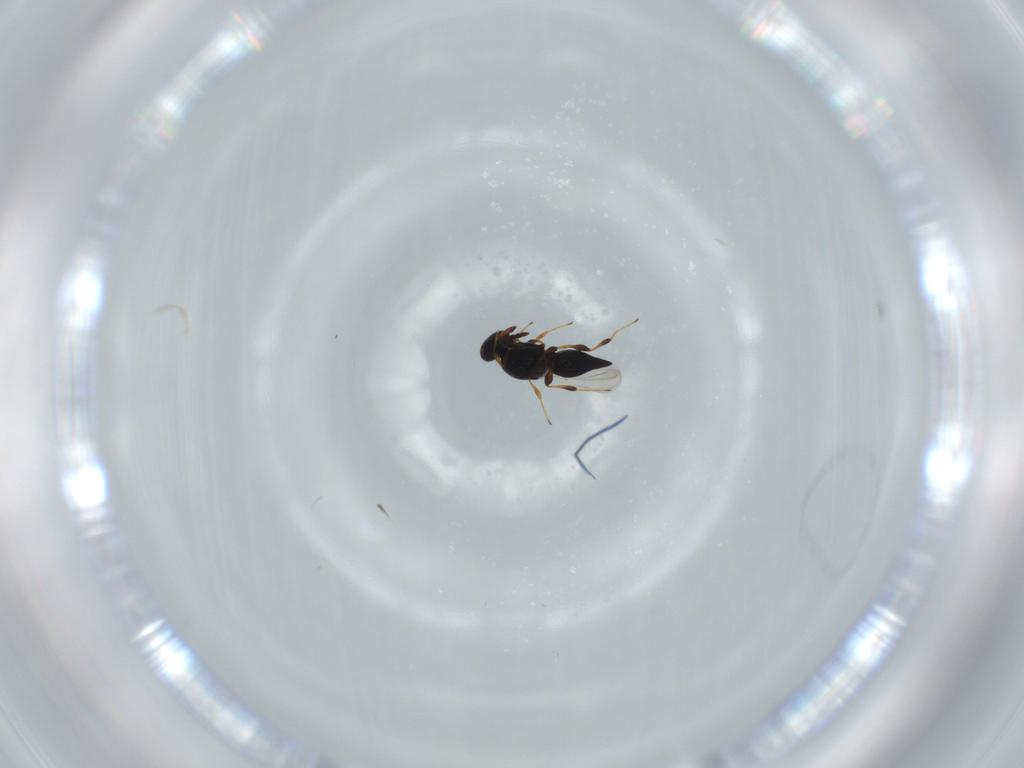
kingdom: Animalia
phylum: Arthropoda
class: Insecta
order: Hymenoptera
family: Platygastridae
